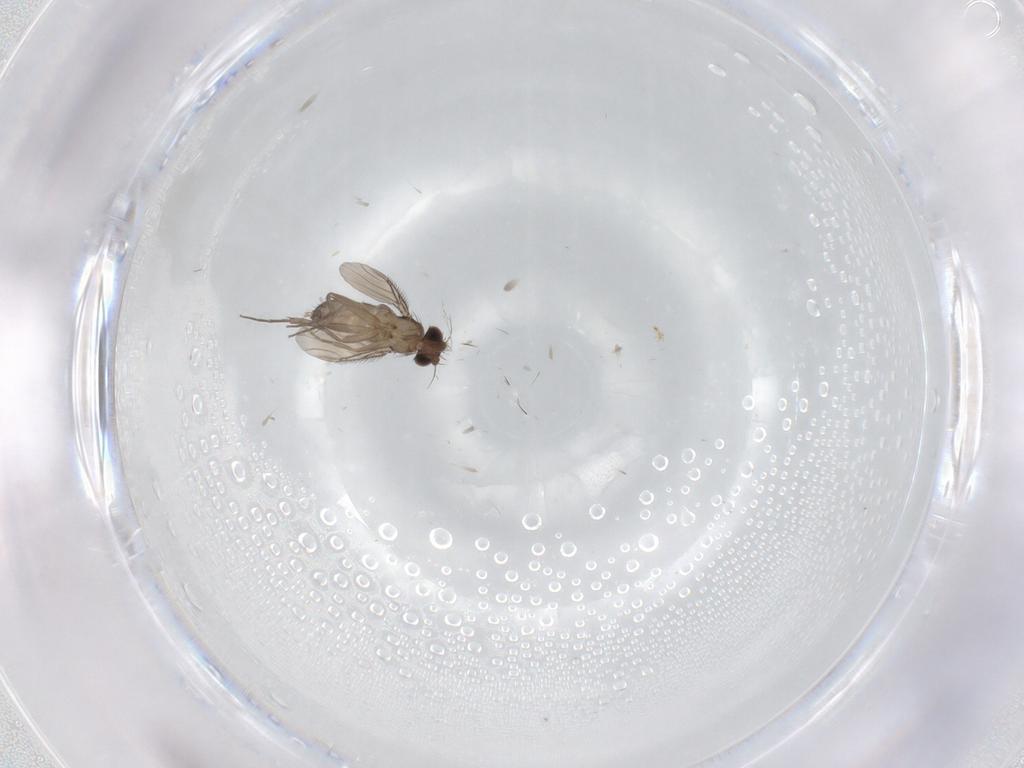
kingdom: Animalia
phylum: Arthropoda
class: Insecta
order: Diptera
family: Phoridae
